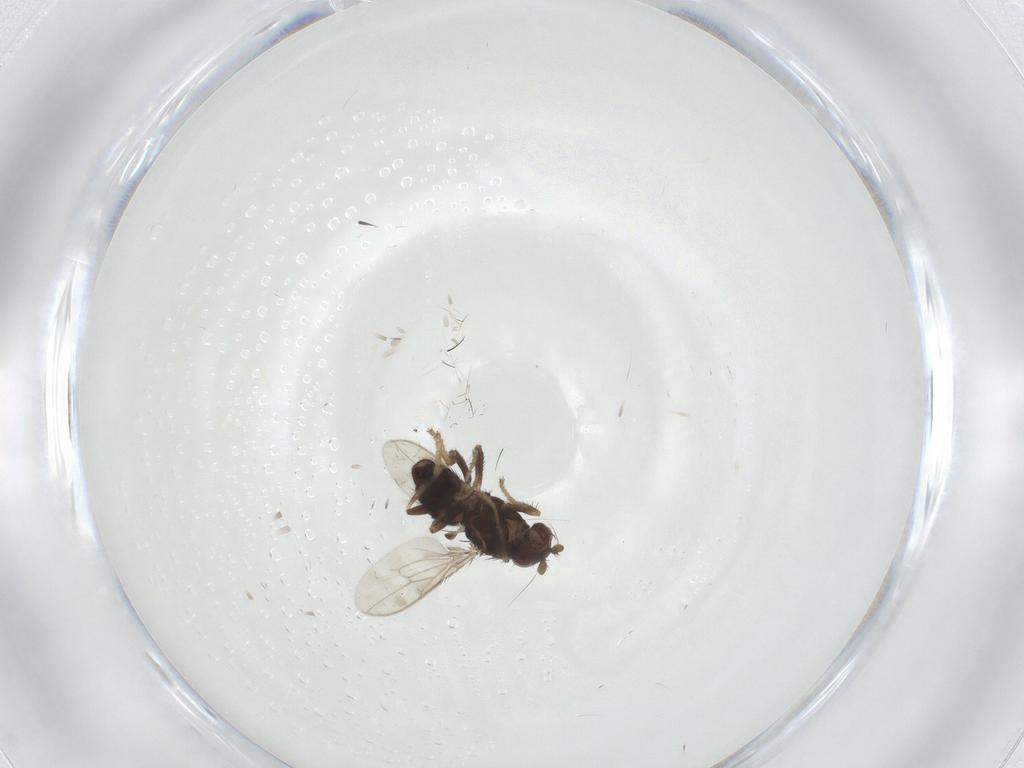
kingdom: Animalia
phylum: Arthropoda
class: Insecta
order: Diptera
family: Sphaeroceridae
